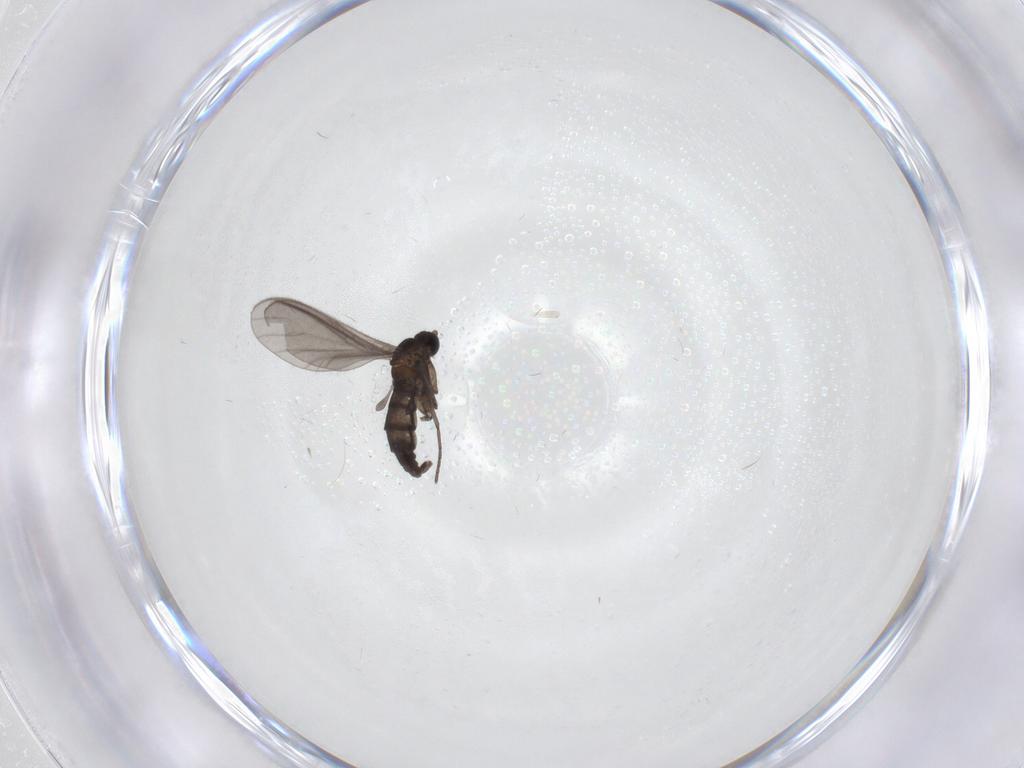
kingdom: Animalia
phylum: Arthropoda
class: Insecta
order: Diptera
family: Sciaridae
